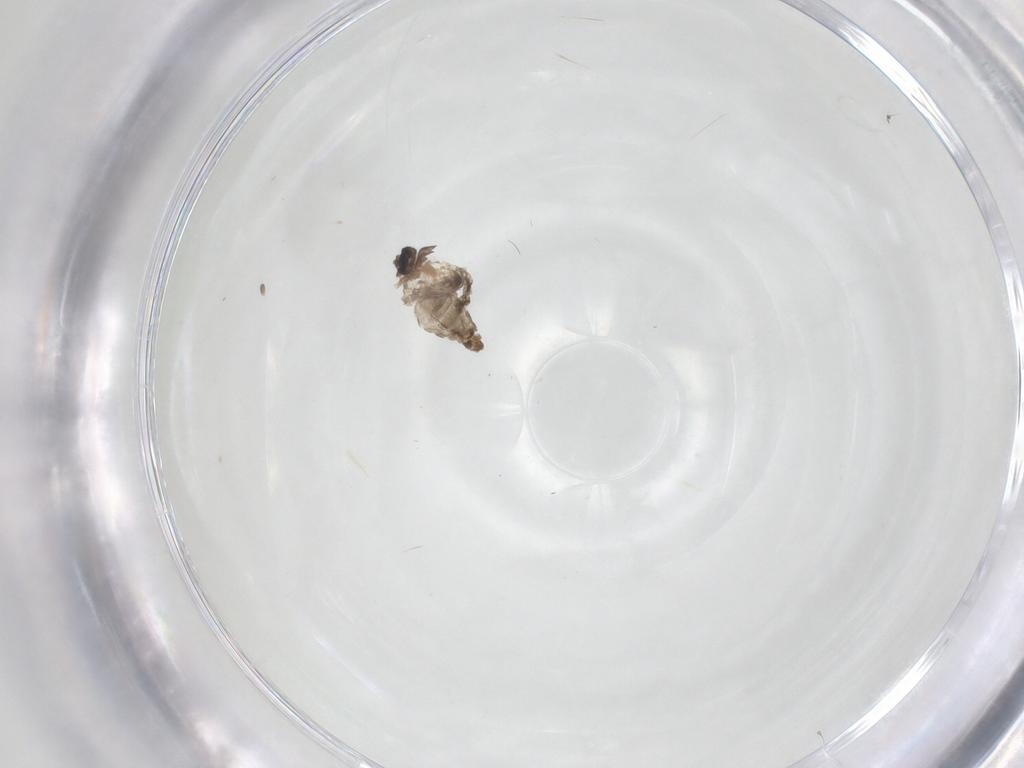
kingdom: Animalia
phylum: Arthropoda
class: Insecta
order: Diptera
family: Ceratopogonidae
